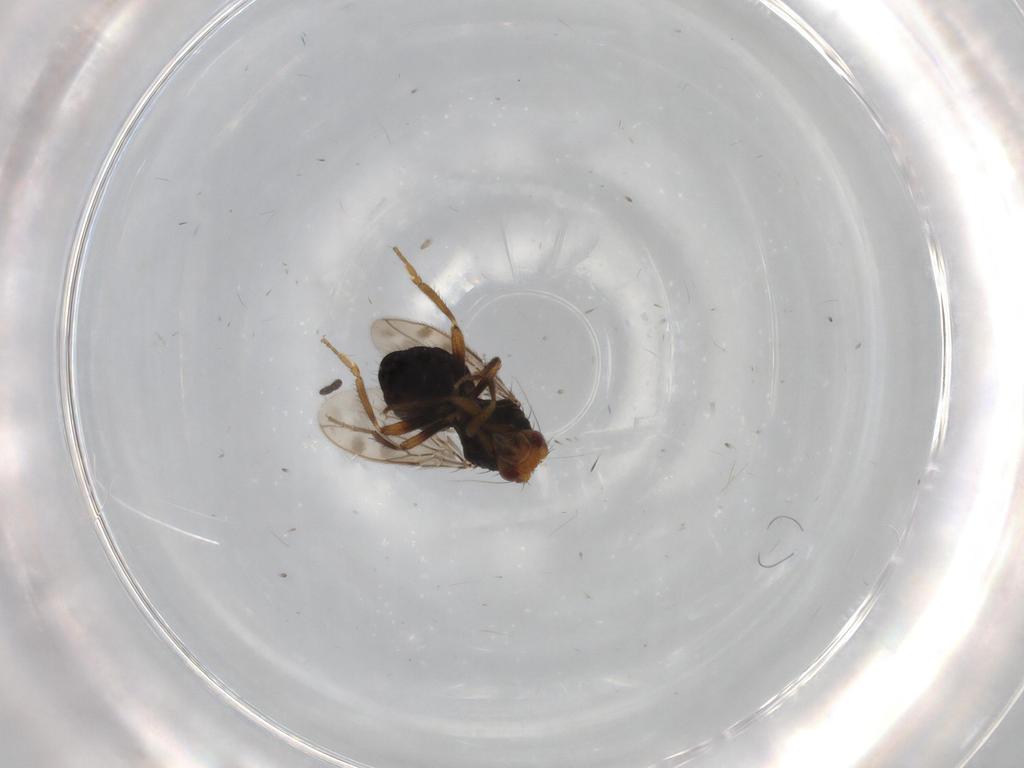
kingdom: Animalia
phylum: Arthropoda
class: Insecta
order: Diptera
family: Sphaeroceridae
